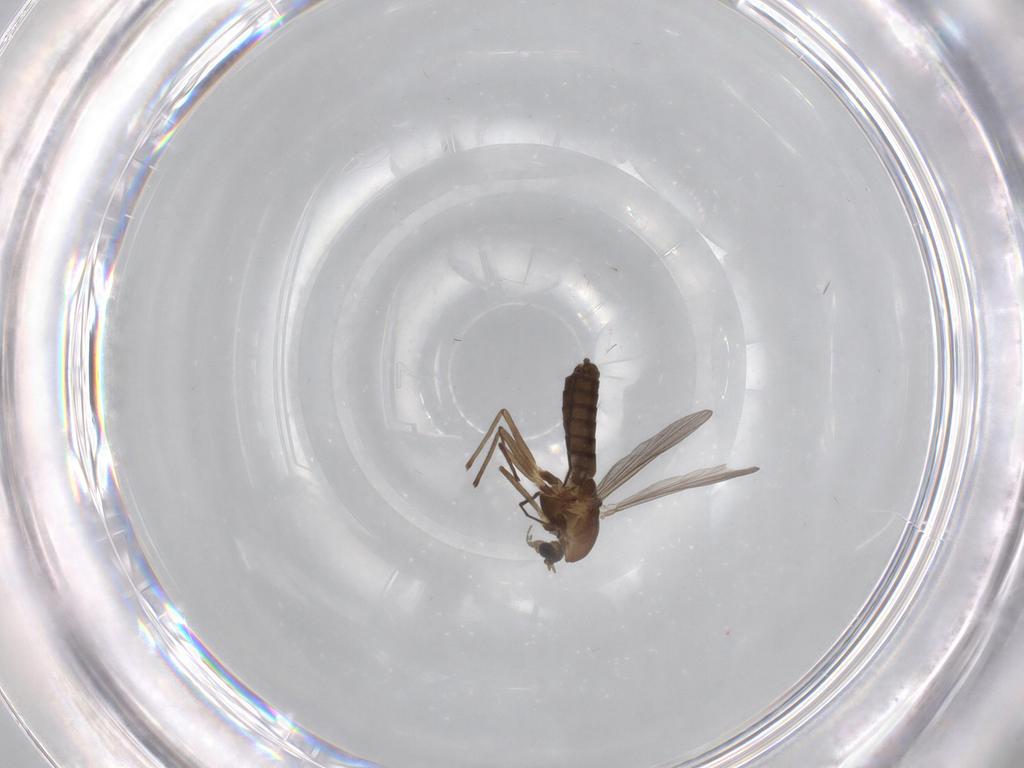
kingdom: Animalia
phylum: Arthropoda
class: Insecta
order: Diptera
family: Chironomidae
